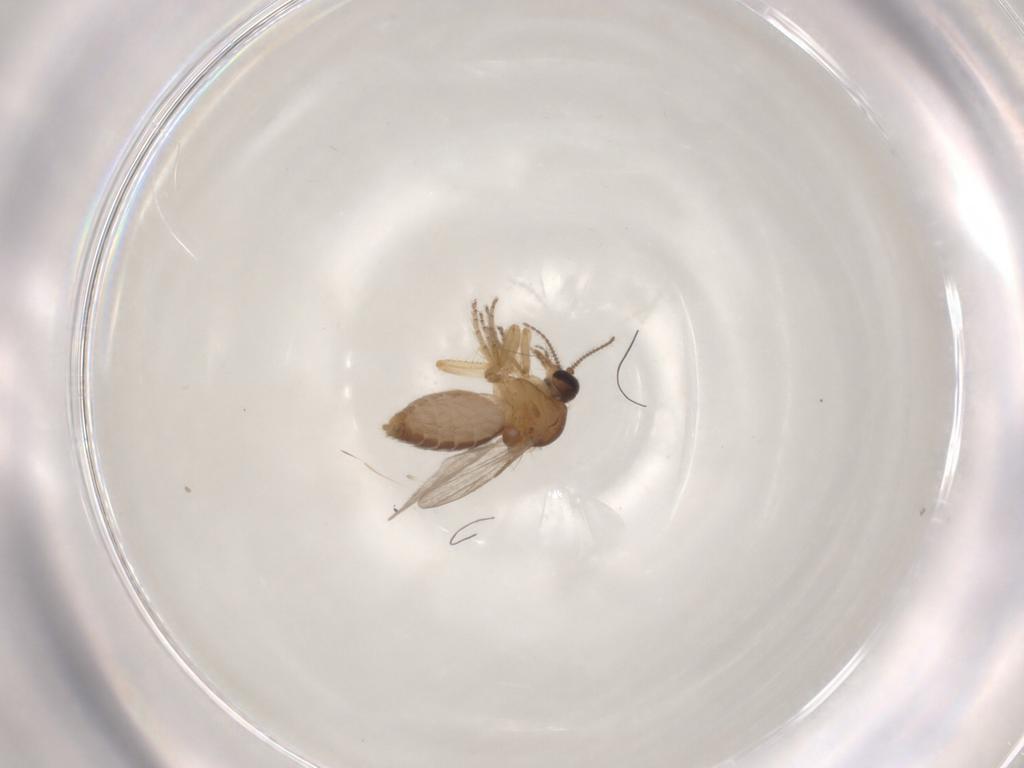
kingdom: Animalia
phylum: Arthropoda
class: Insecta
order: Diptera
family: Ceratopogonidae
